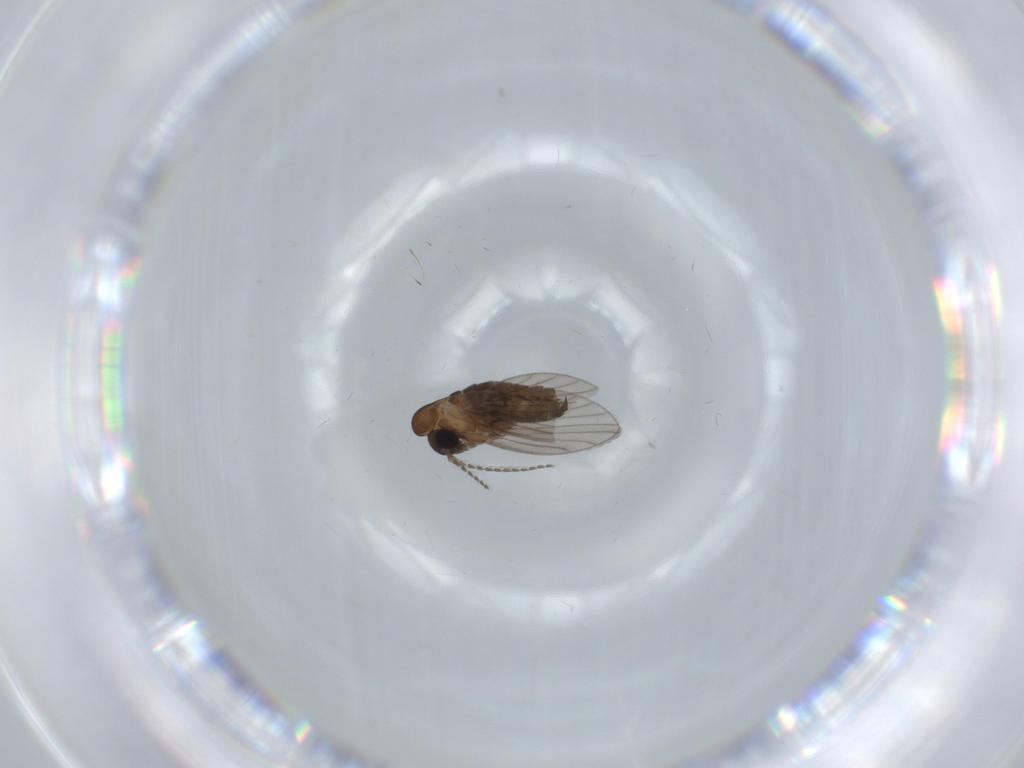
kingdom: Animalia
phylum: Arthropoda
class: Insecta
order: Diptera
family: Psychodidae
